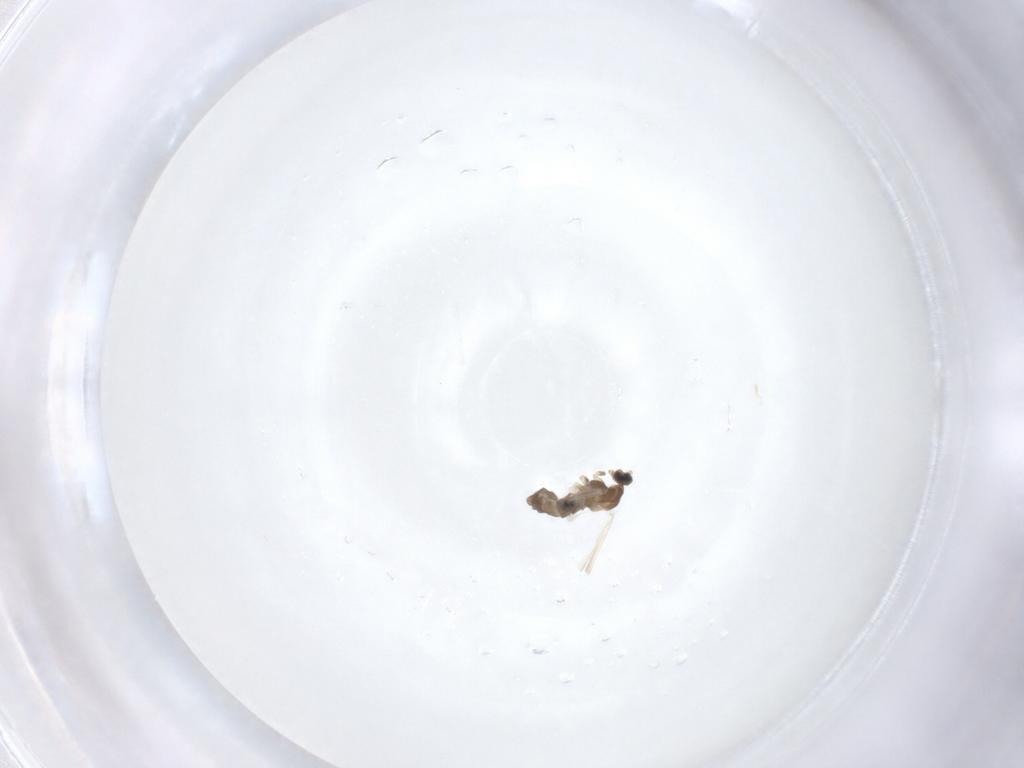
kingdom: Animalia
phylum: Arthropoda
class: Insecta
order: Diptera
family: Cecidomyiidae
